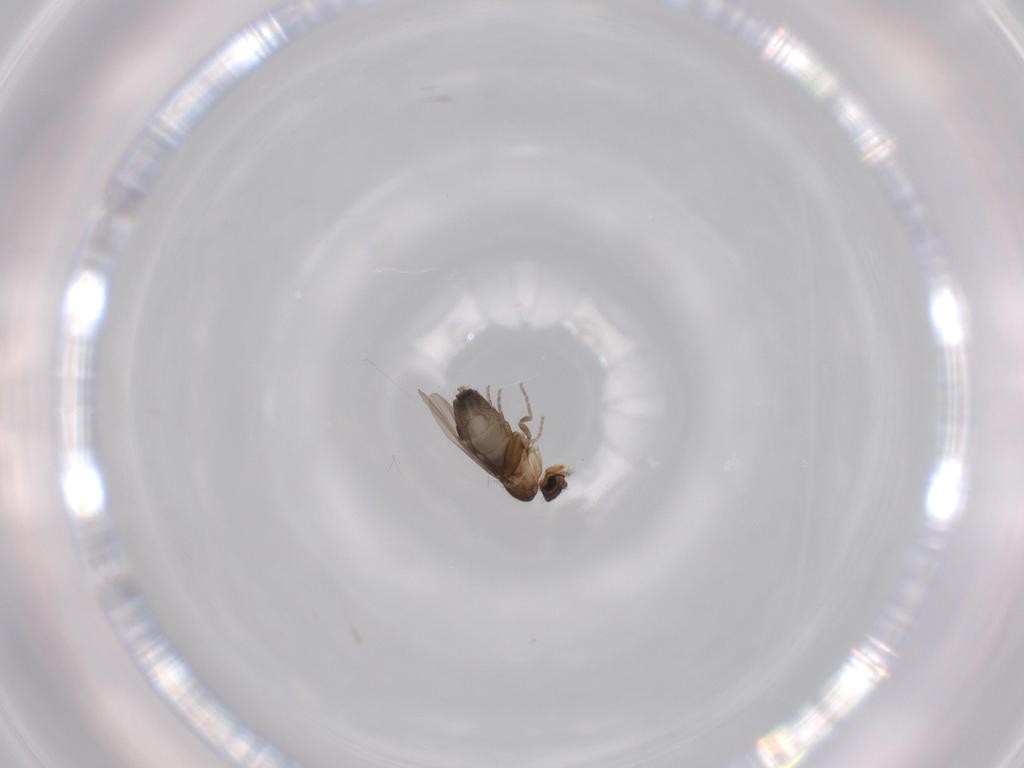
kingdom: Animalia
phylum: Arthropoda
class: Insecta
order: Diptera
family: Phoridae
